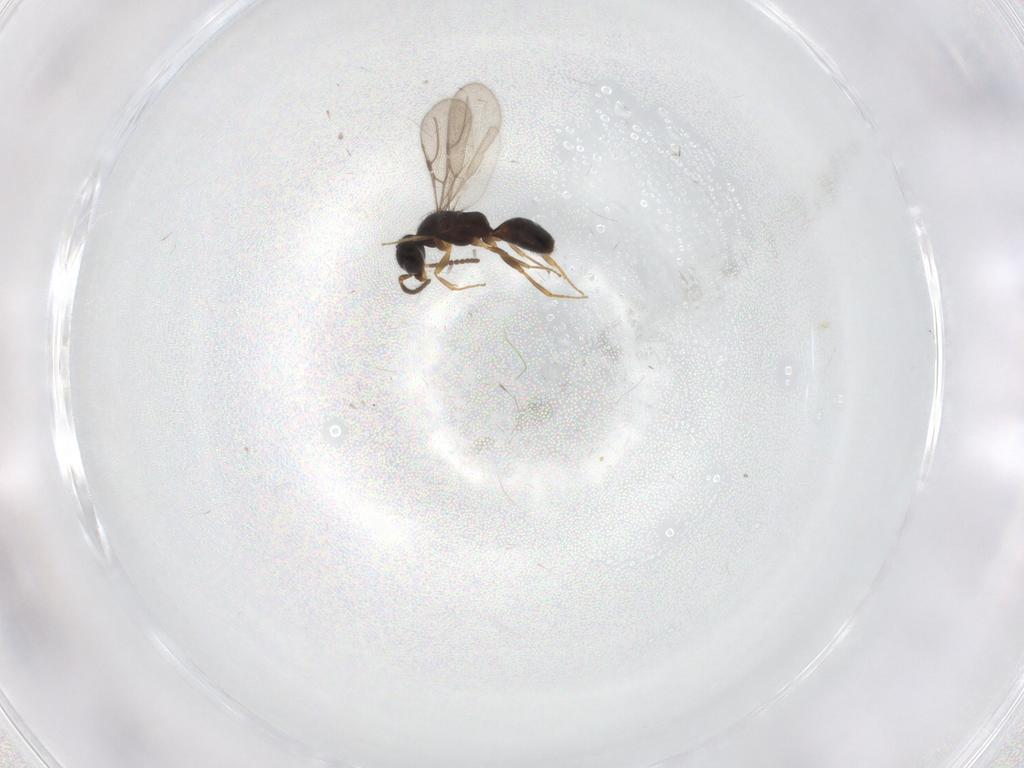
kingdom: Animalia
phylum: Arthropoda
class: Insecta
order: Hymenoptera
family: Bethylidae
